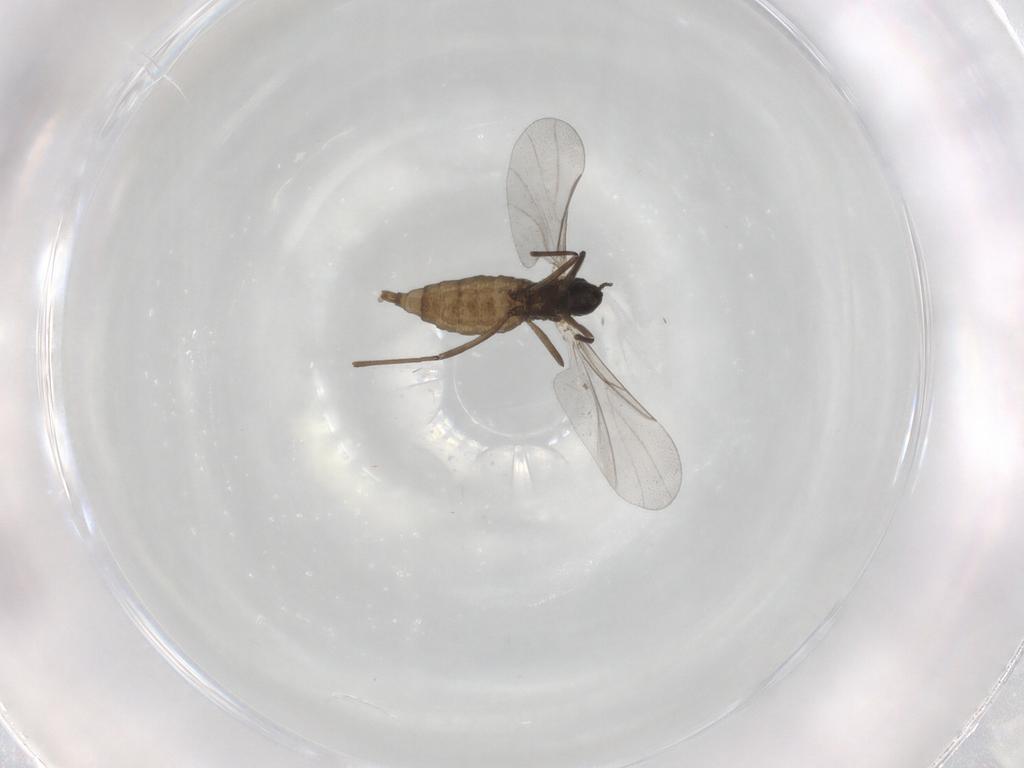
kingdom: Animalia
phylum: Arthropoda
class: Insecta
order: Diptera
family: Cecidomyiidae
